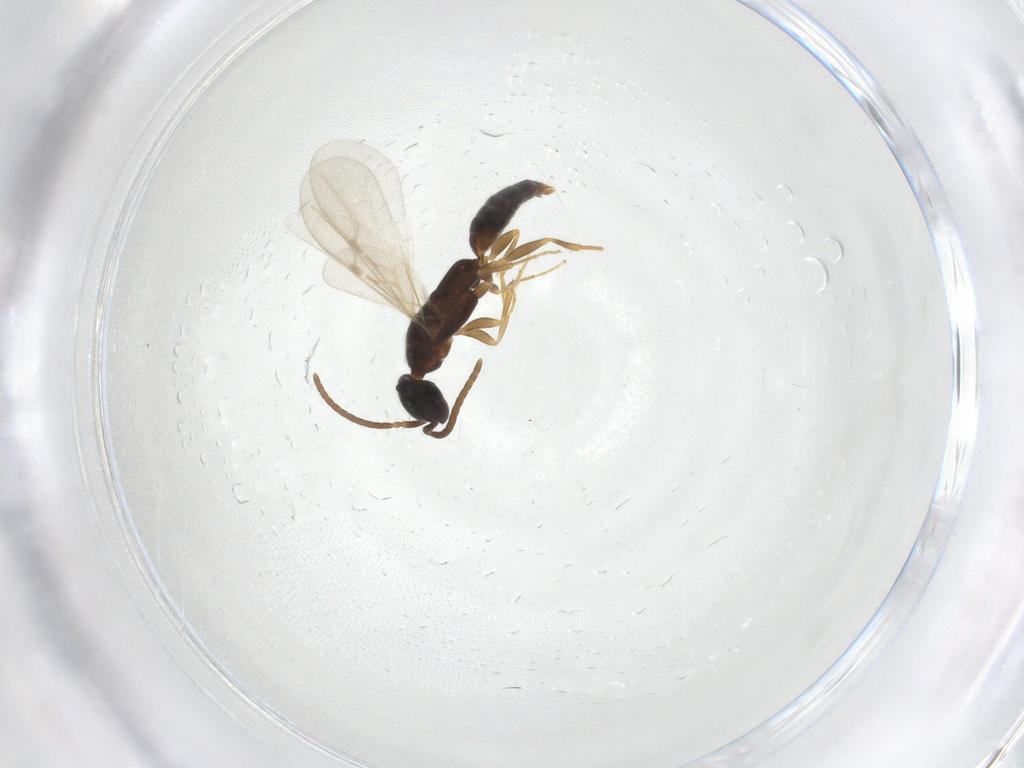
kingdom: Animalia
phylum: Arthropoda
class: Insecta
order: Hymenoptera
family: Bethylidae
